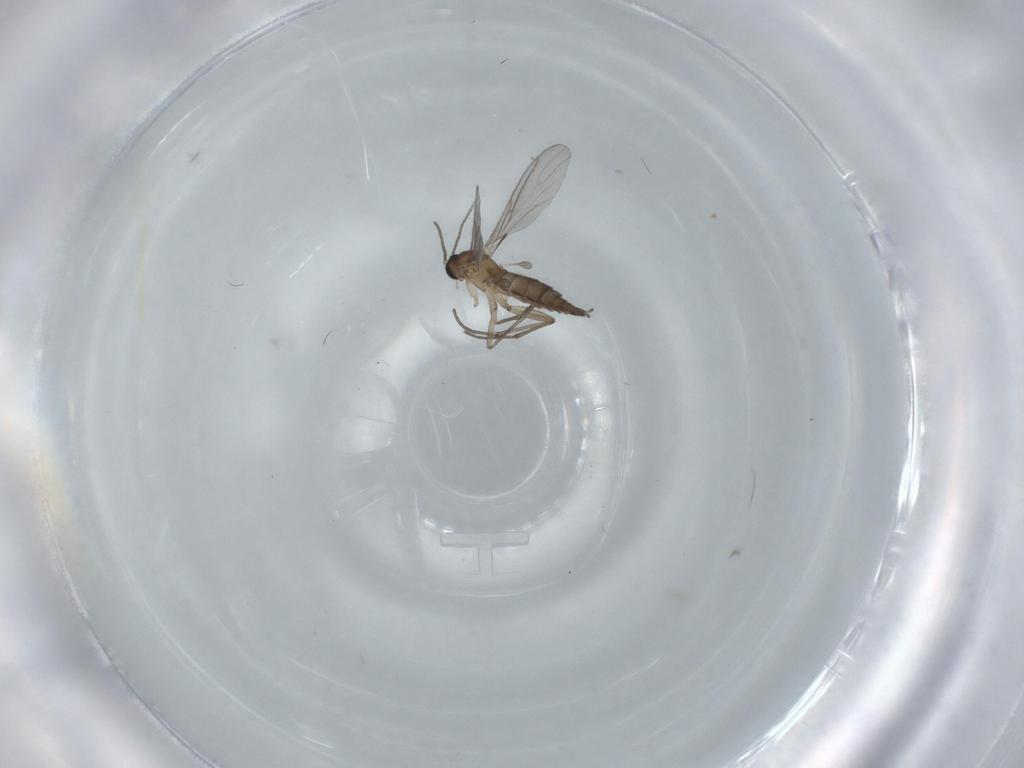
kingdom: Animalia
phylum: Arthropoda
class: Insecta
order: Diptera
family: Sciaridae
